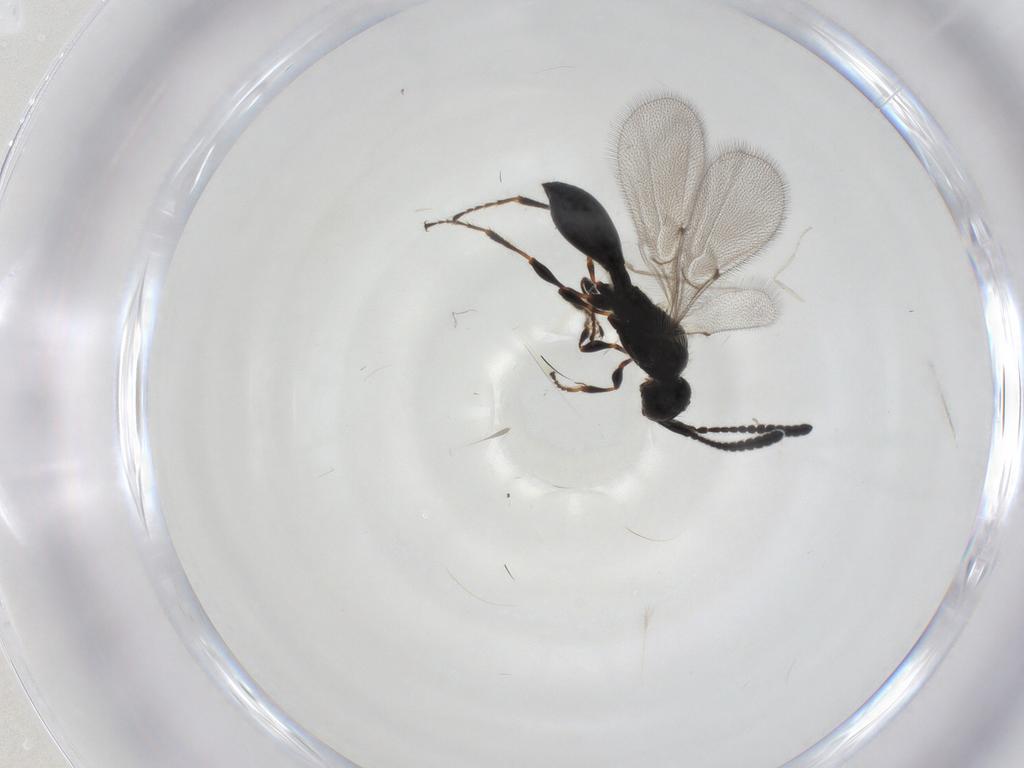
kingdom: Animalia
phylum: Arthropoda
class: Insecta
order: Hymenoptera
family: Diapriidae
